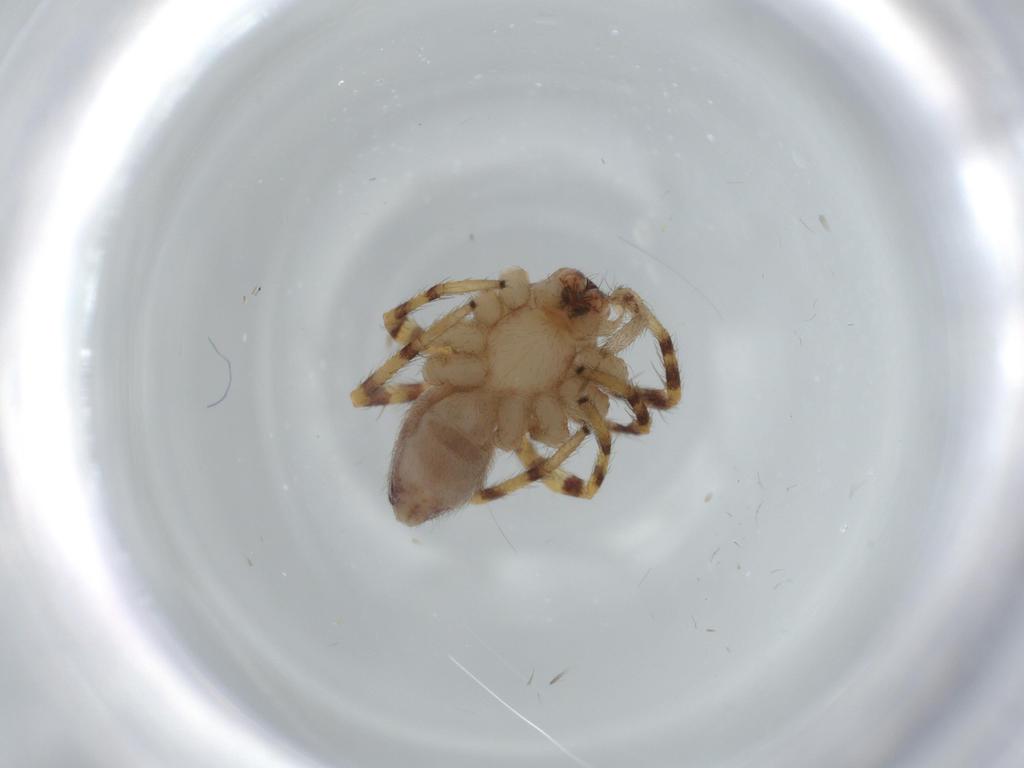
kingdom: Animalia
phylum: Arthropoda
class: Arachnida
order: Araneae
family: Corinnidae
